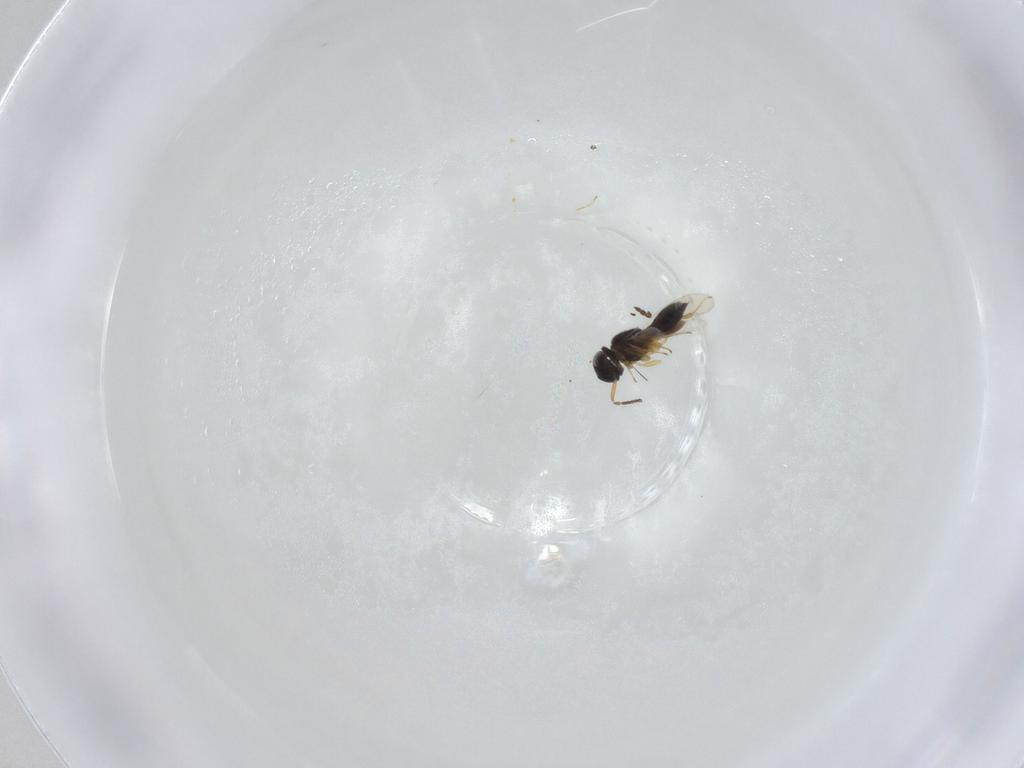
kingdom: Animalia
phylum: Arthropoda
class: Insecta
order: Hymenoptera
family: Scelionidae
